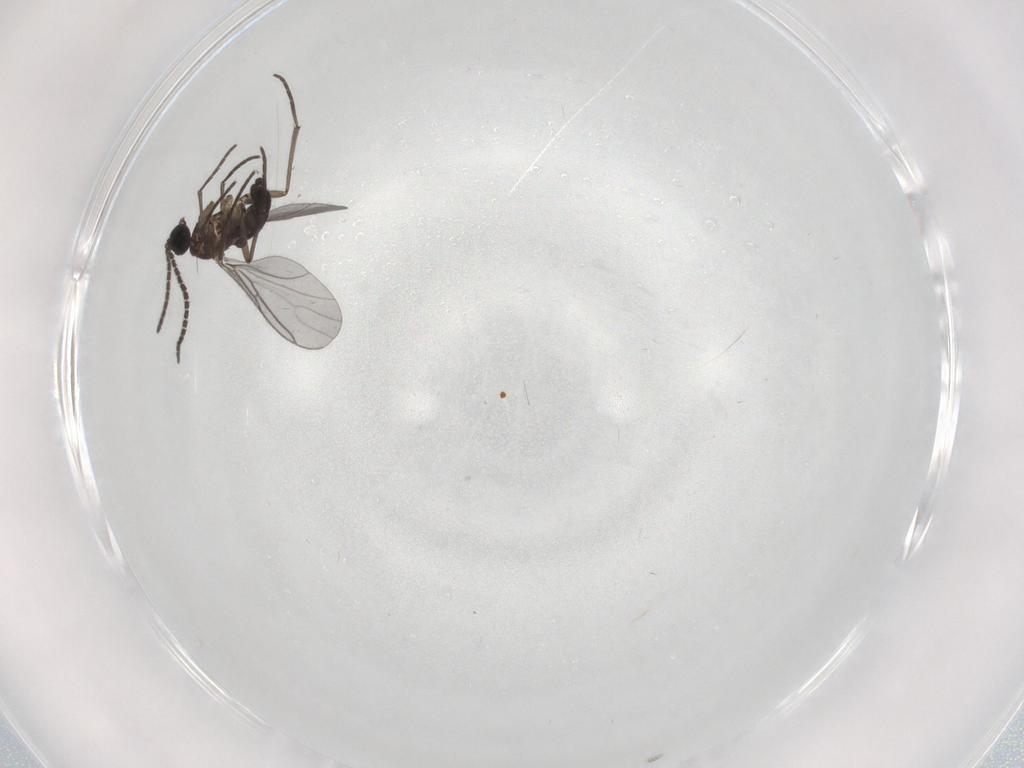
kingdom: Animalia
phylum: Arthropoda
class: Insecta
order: Diptera
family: Sciaridae
